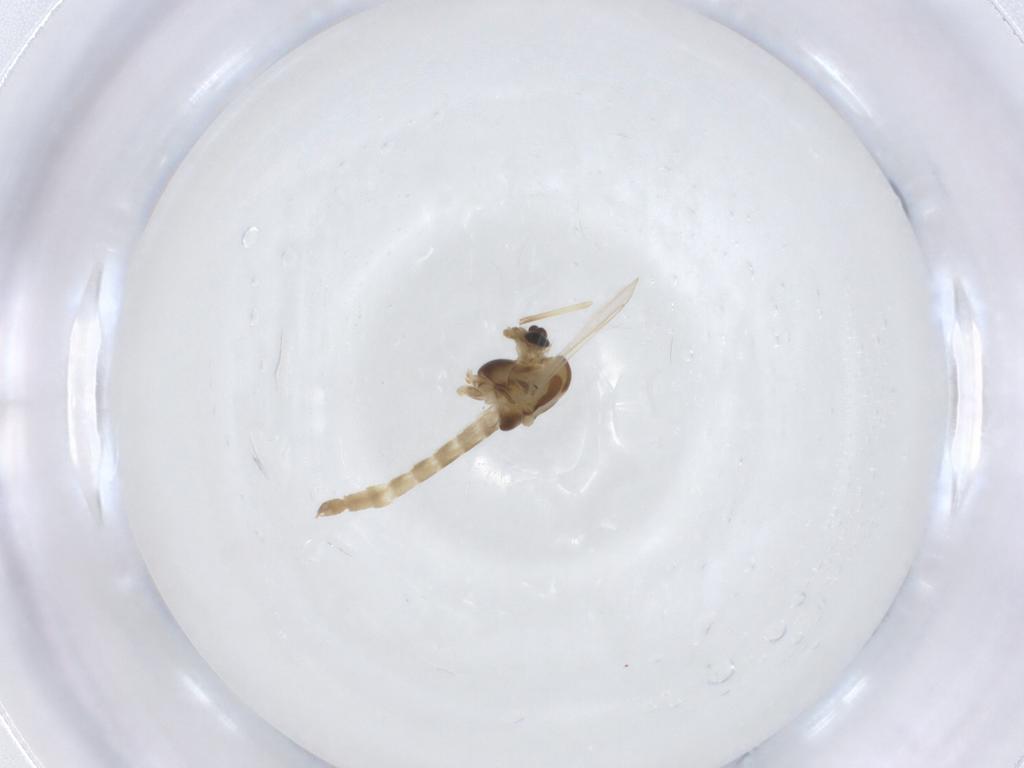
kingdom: Animalia
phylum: Arthropoda
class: Insecta
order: Diptera
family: Chironomidae
